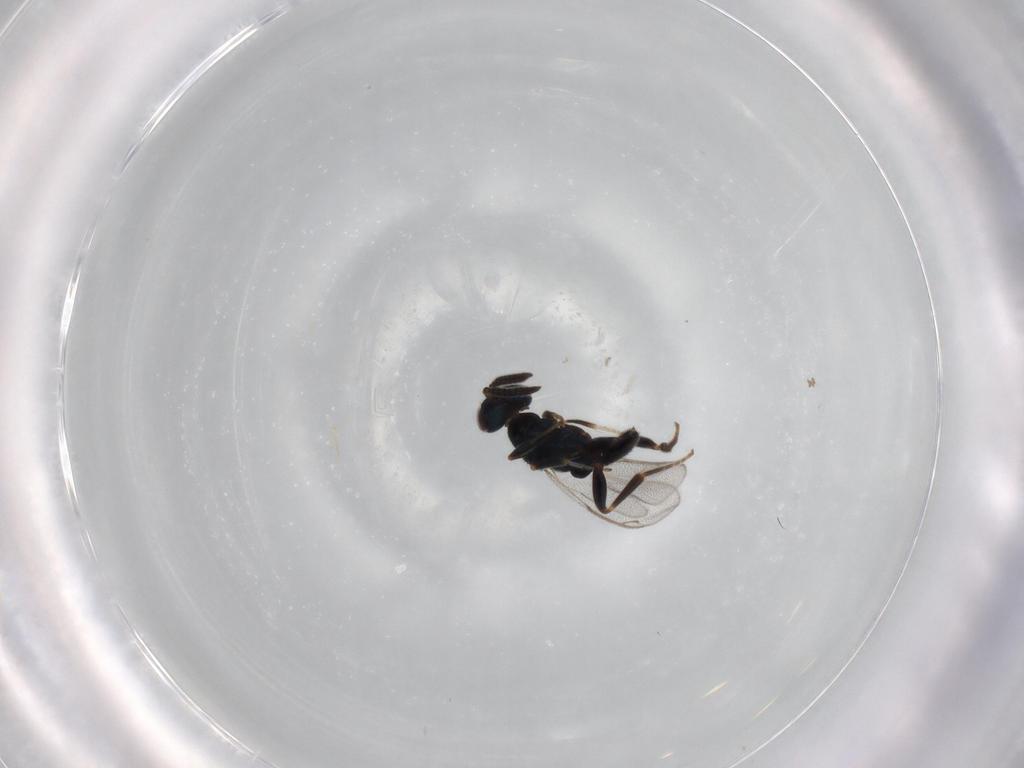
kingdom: Animalia
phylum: Arthropoda
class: Insecta
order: Hymenoptera
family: Cleonyminae
